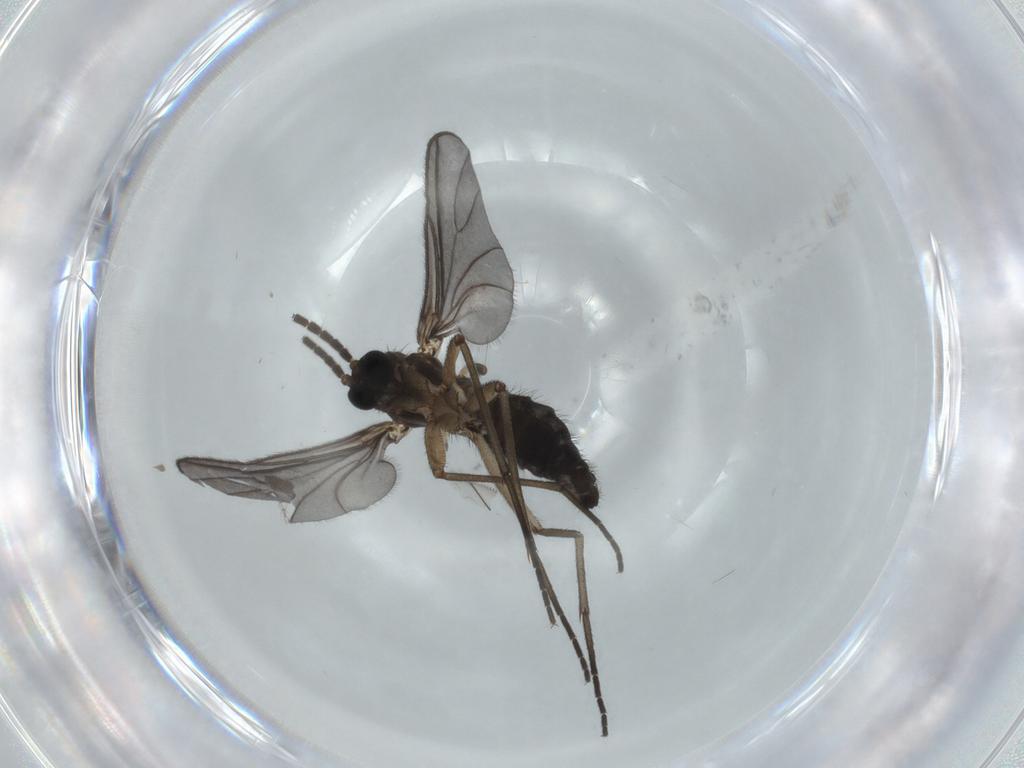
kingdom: Animalia
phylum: Arthropoda
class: Insecta
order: Diptera
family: Sciaridae
